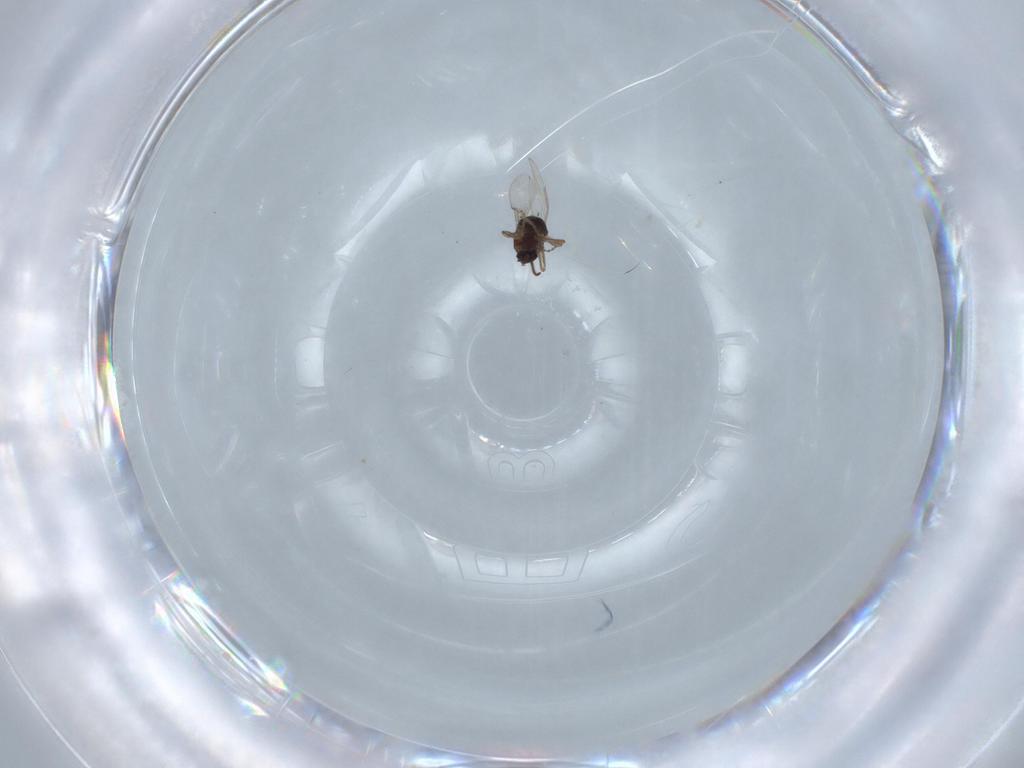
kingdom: Animalia
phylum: Arthropoda
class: Insecta
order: Diptera
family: Ceratopogonidae
